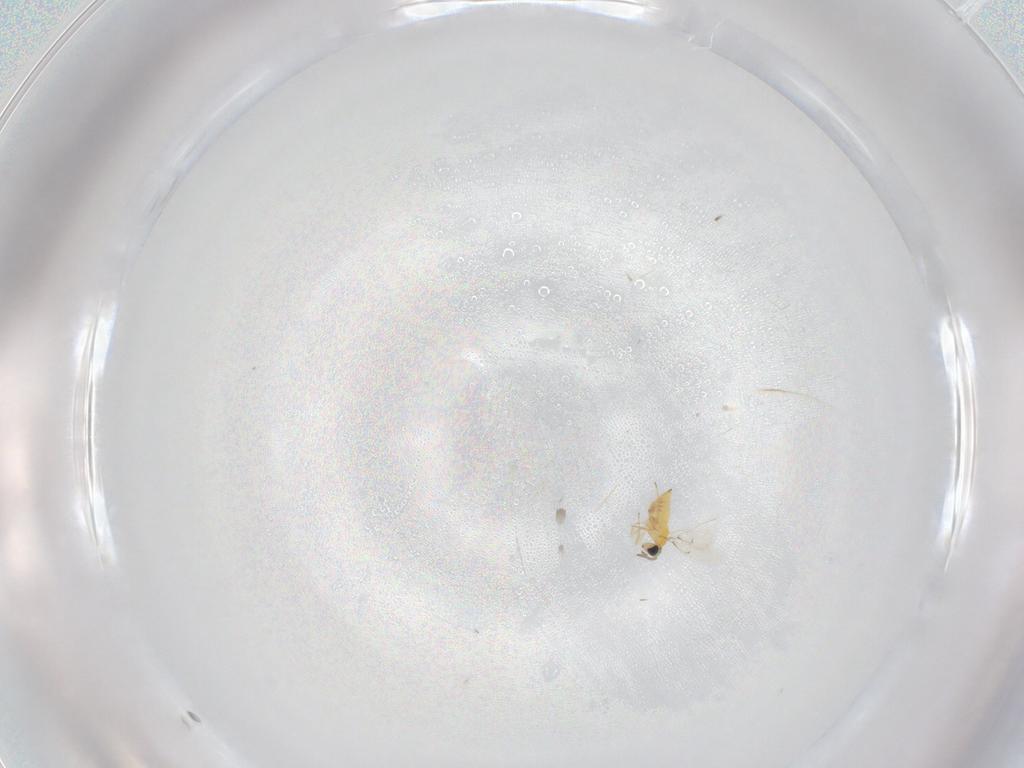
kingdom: Animalia
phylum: Arthropoda
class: Insecta
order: Hymenoptera
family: Trichogrammatidae
